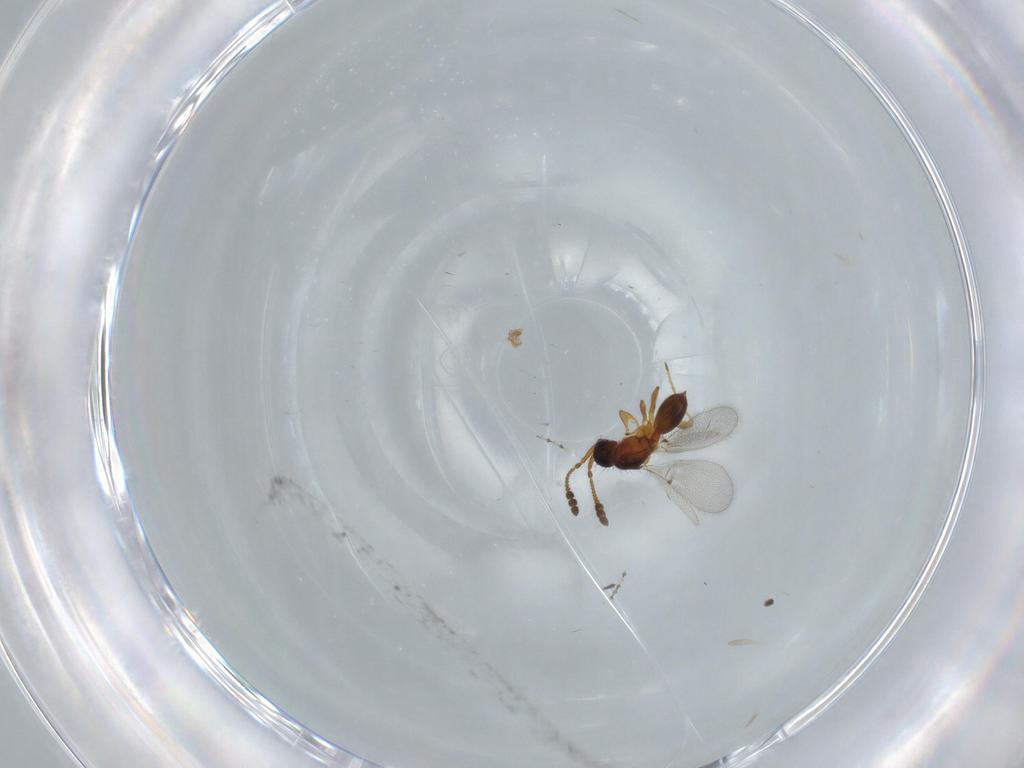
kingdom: Animalia
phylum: Arthropoda
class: Insecta
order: Hymenoptera
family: Diapriidae
